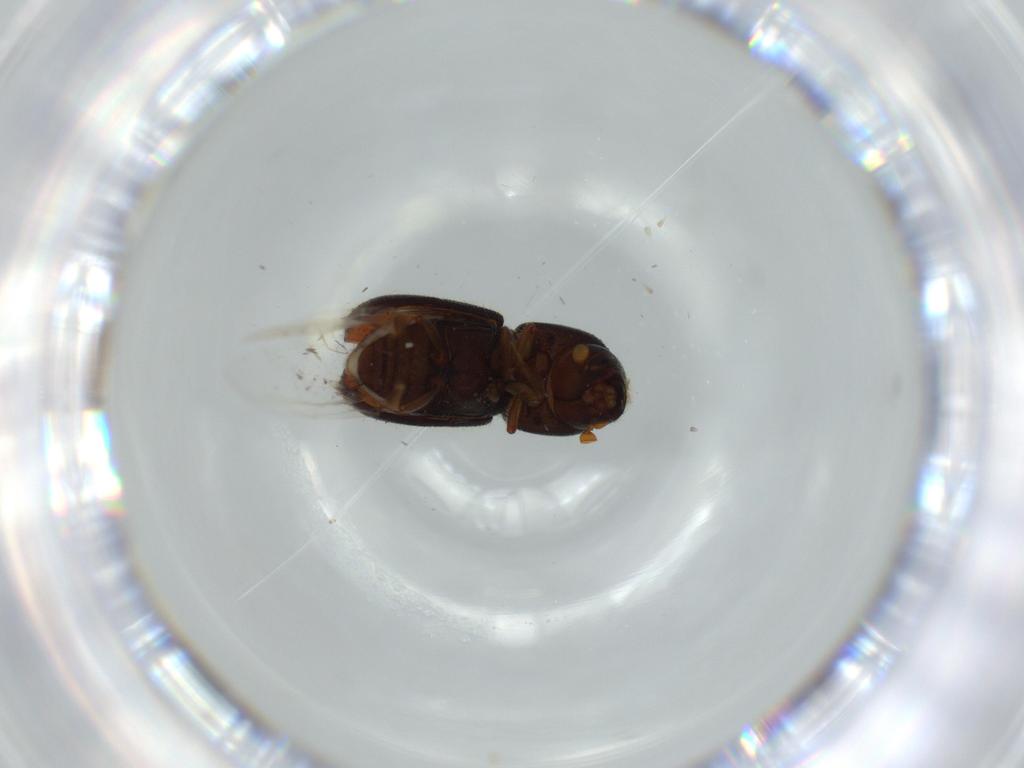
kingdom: Animalia
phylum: Arthropoda
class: Insecta
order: Coleoptera
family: Curculionidae
